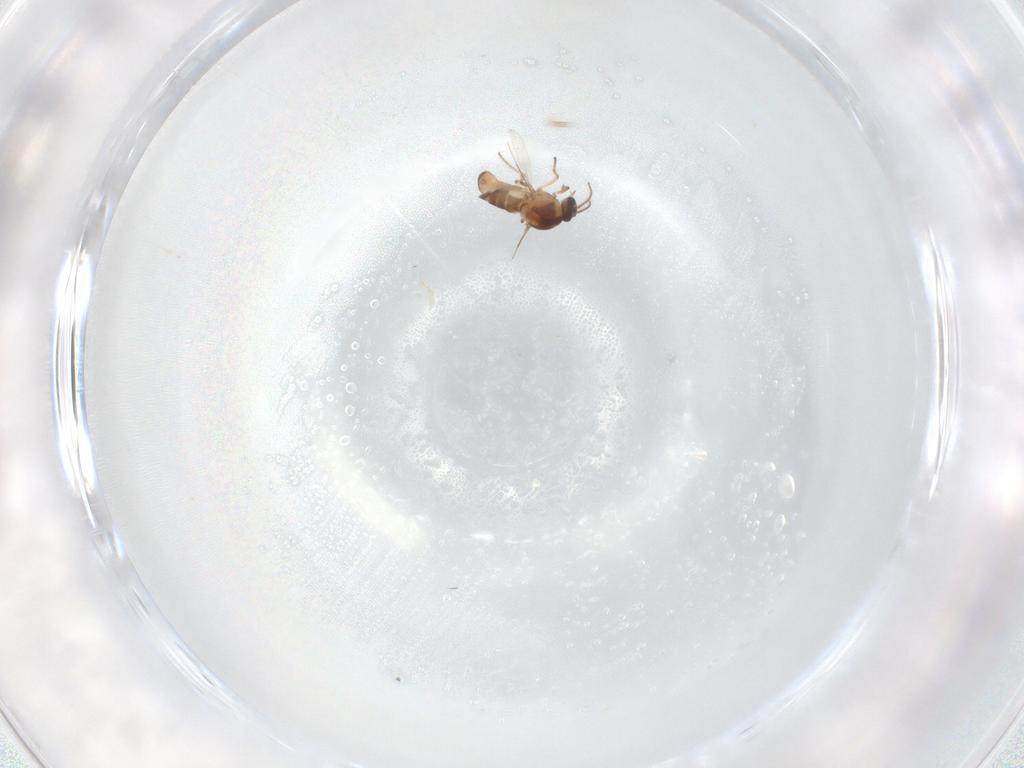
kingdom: Animalia
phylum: Arthropoda
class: Insecta
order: Diptera
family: Ceratopogonidae
